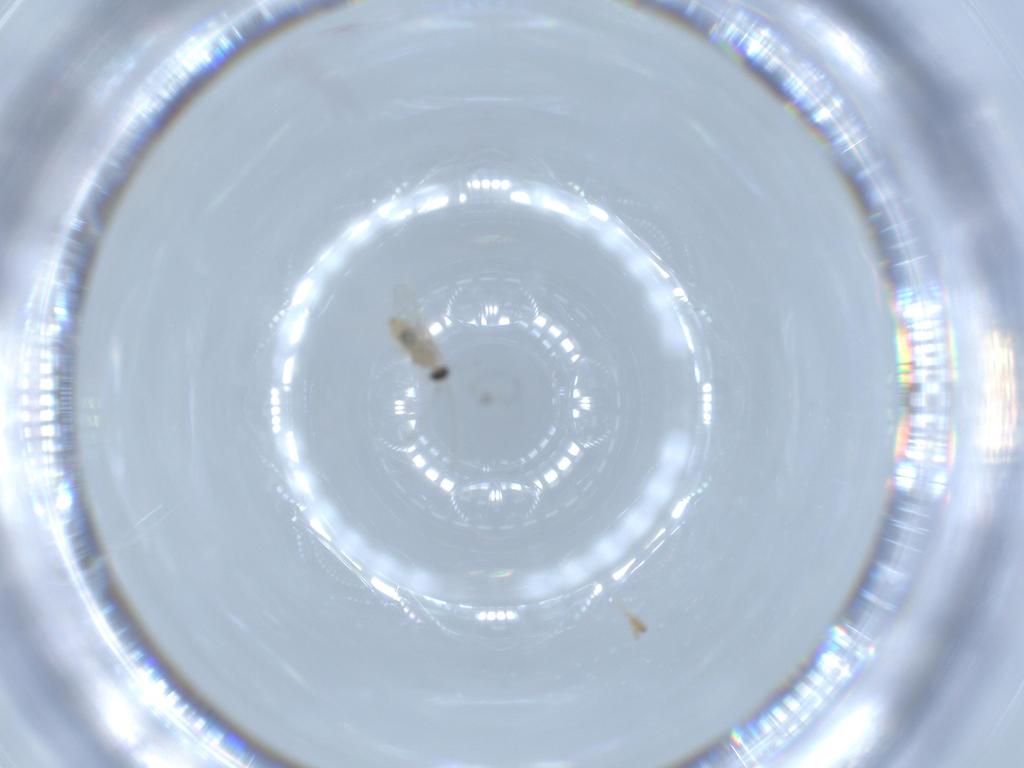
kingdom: Animalia
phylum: Arthropoda
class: Insecta
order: Diptera
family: Cecidomyiidae
